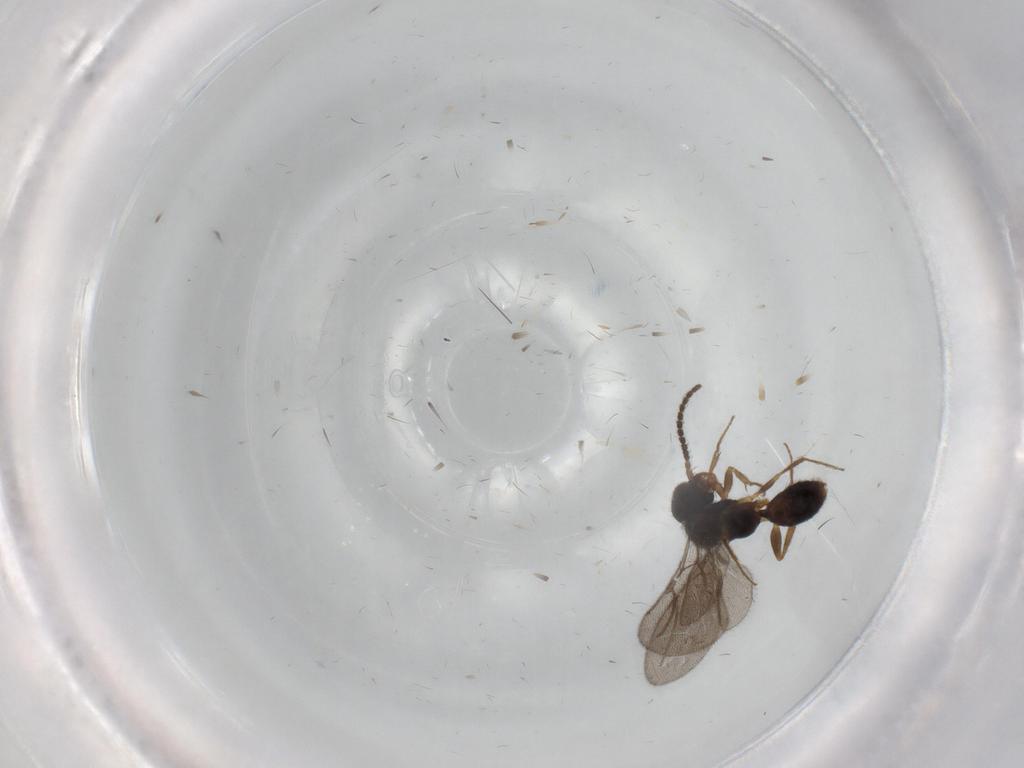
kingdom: Animalia
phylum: Arthropoda
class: Insecta
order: Hymenoptera
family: Bethylidae
